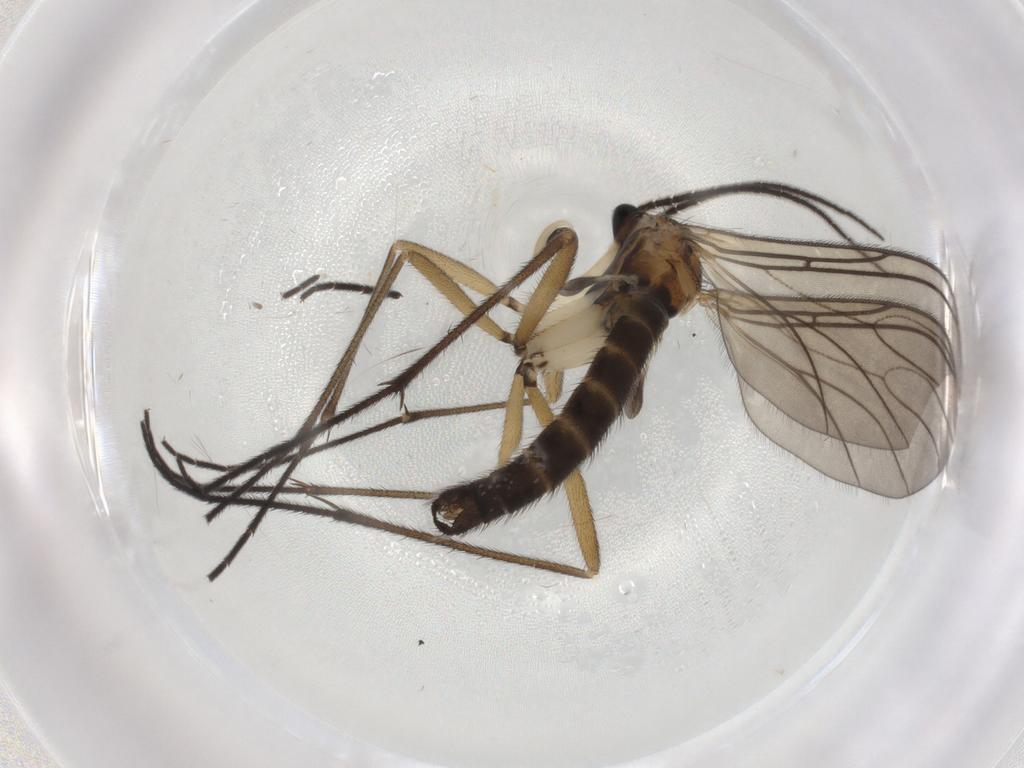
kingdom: Animalia
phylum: Arthropoda
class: Insecta
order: Diptera
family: Sciaridae
